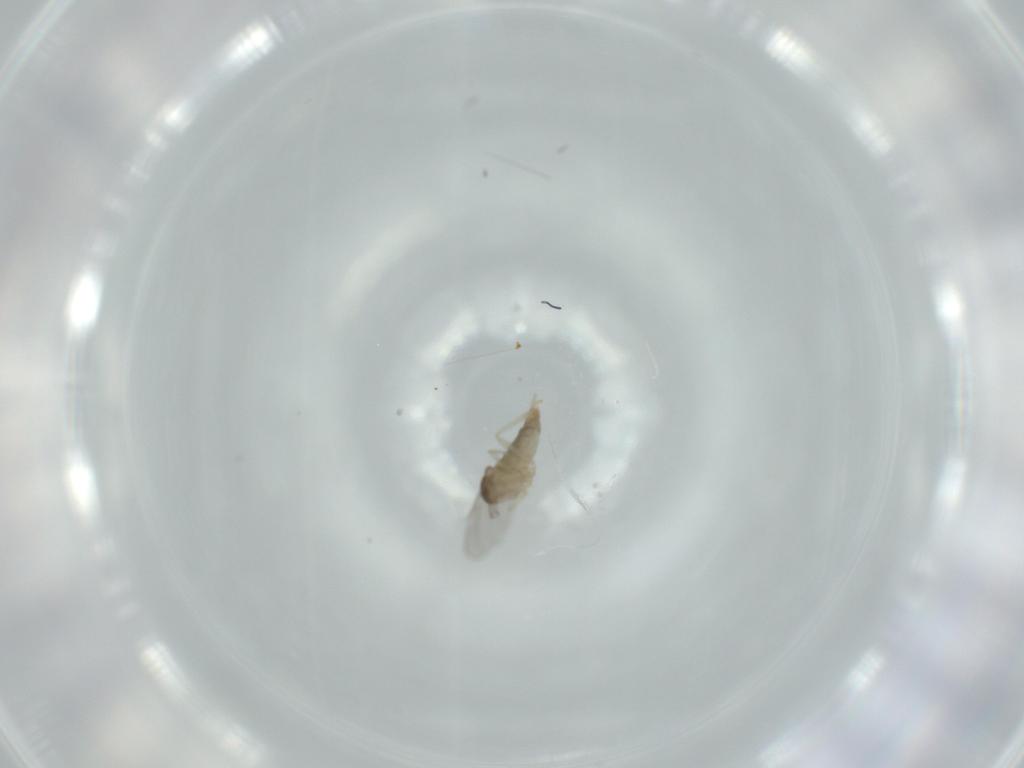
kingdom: Animalia
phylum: Arthropoda
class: Insecta
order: Diptera
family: Cecidomyiidae
